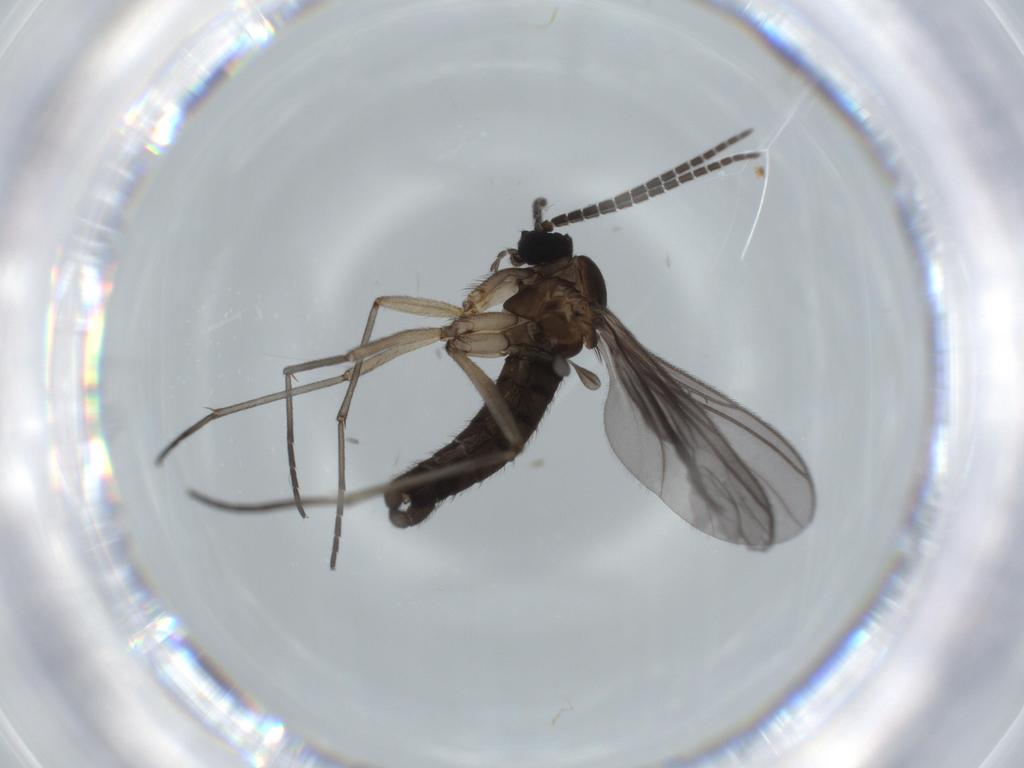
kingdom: Animalia
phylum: Arthropoda
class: Insecta
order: Diptera
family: Sciaridae
